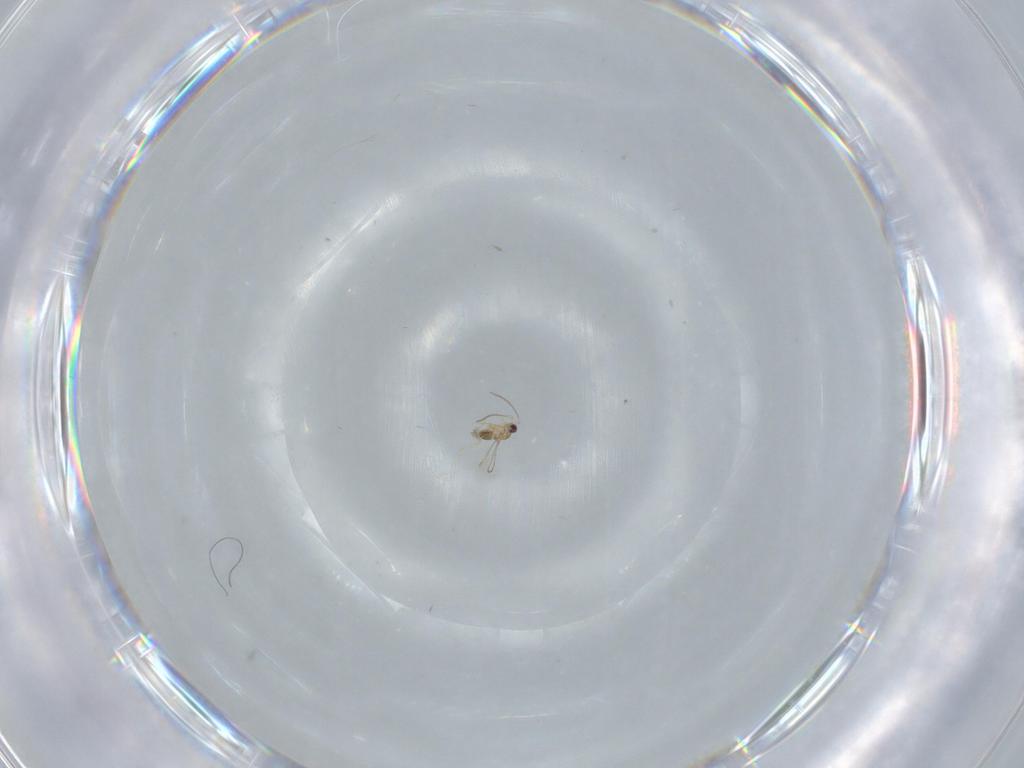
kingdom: Animalia
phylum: Arthropoda
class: Insecta
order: Hymenoptera
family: Diapriidae
